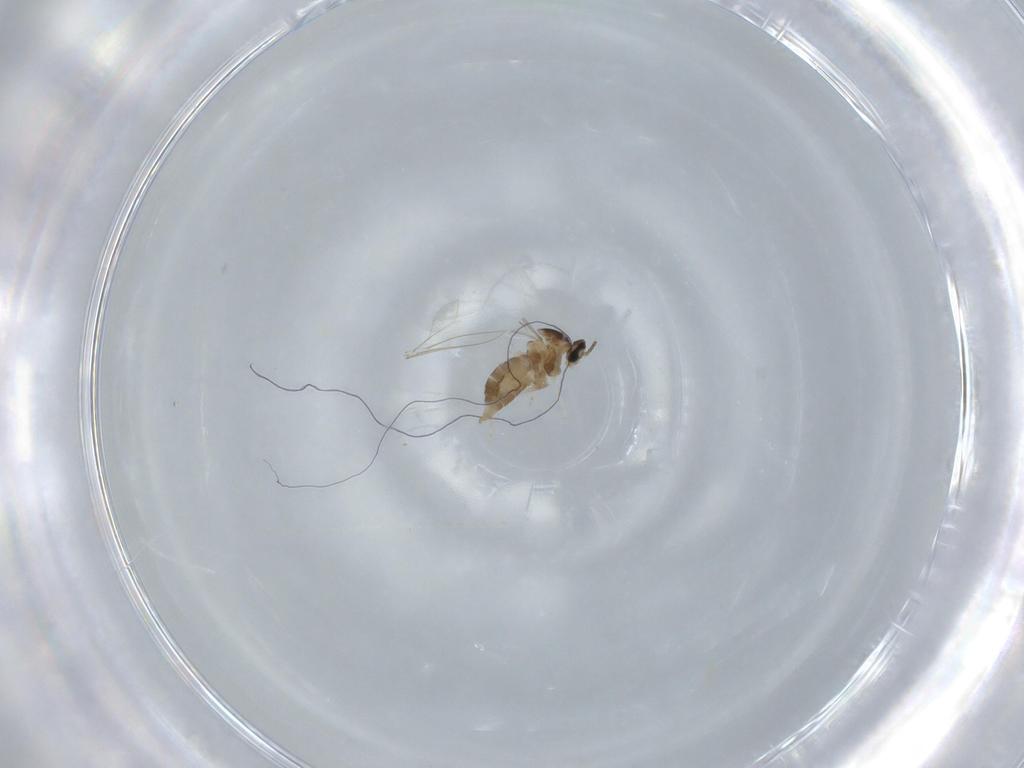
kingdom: Animalia
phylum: Arthropoda
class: Insecta
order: Diptera
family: Cecidomyiidae
